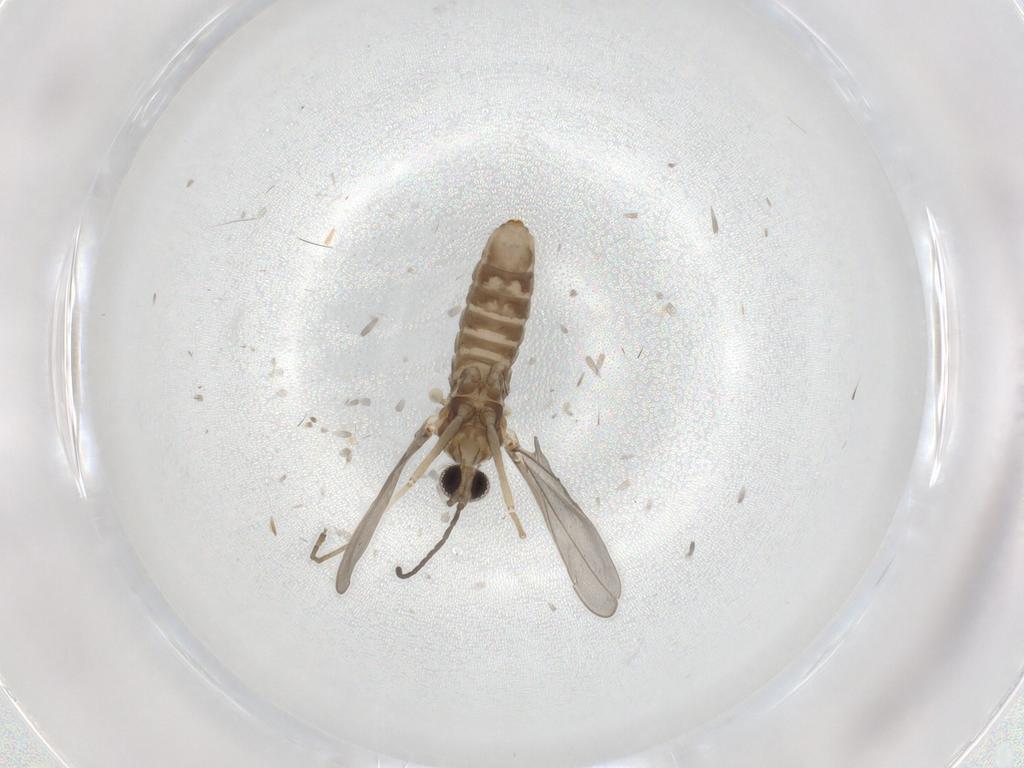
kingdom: Animalia
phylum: Arthropoda
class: Insecta
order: Diptera
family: Cecidomyiidae
